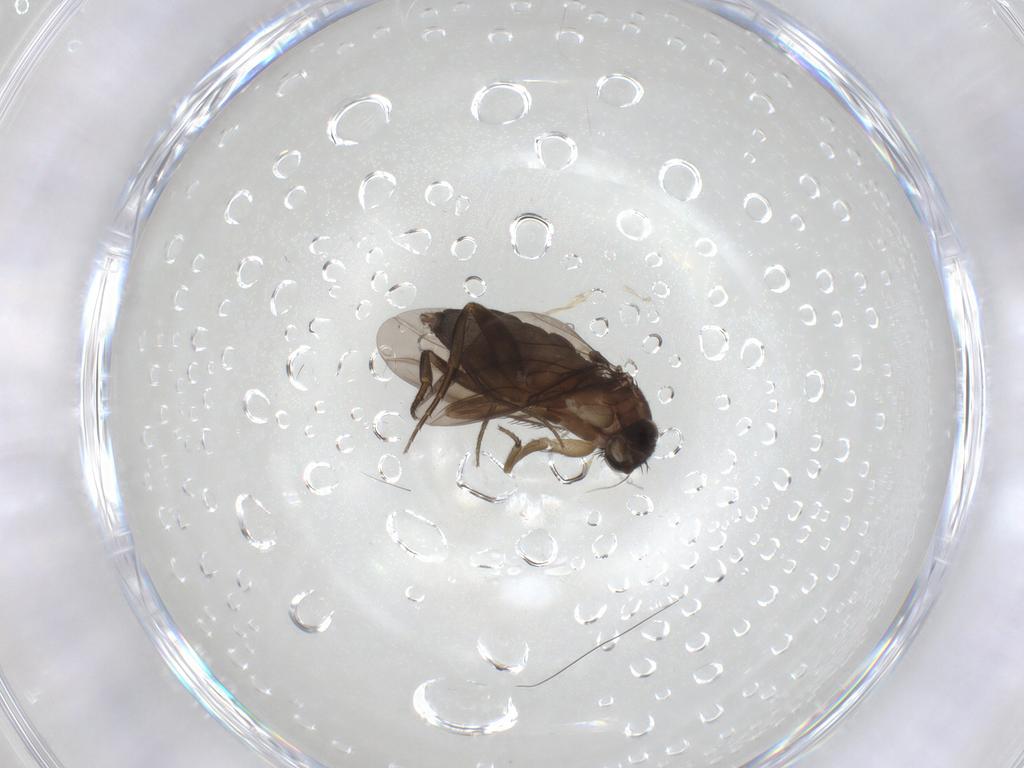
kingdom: Animalia
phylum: Arthropoda
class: Insecta
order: Diptera
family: Phoridae
